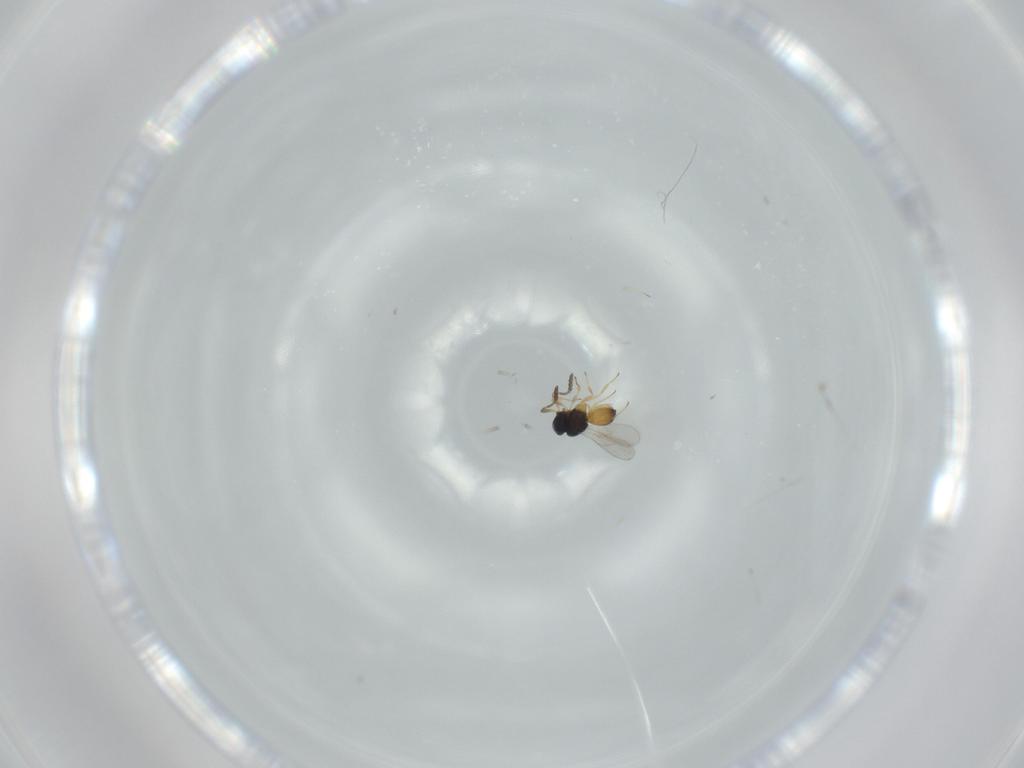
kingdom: Animalia
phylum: Arthropoda
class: Insecta
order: Hymenoptera
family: Scelionidae
